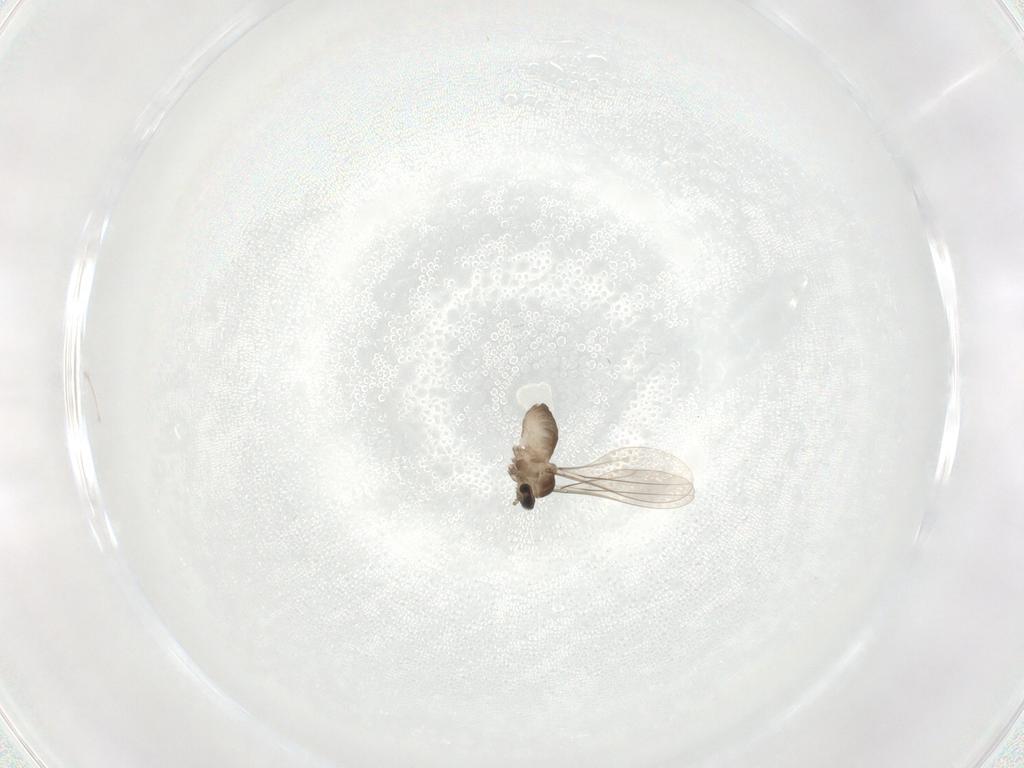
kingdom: Animalia
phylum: Arthropoda
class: Insecta
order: Diptera
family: Cecidomyiidae
